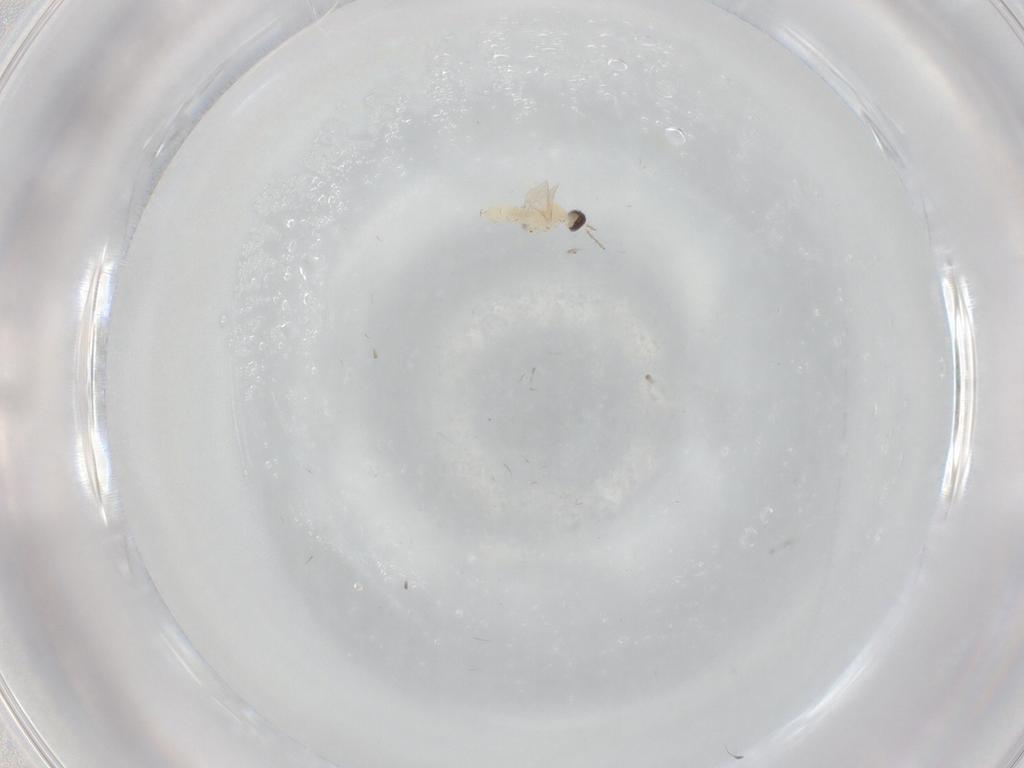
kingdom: Animalia
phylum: Arthropoda
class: Insecta
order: Diptera
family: Cecidomyiidae
